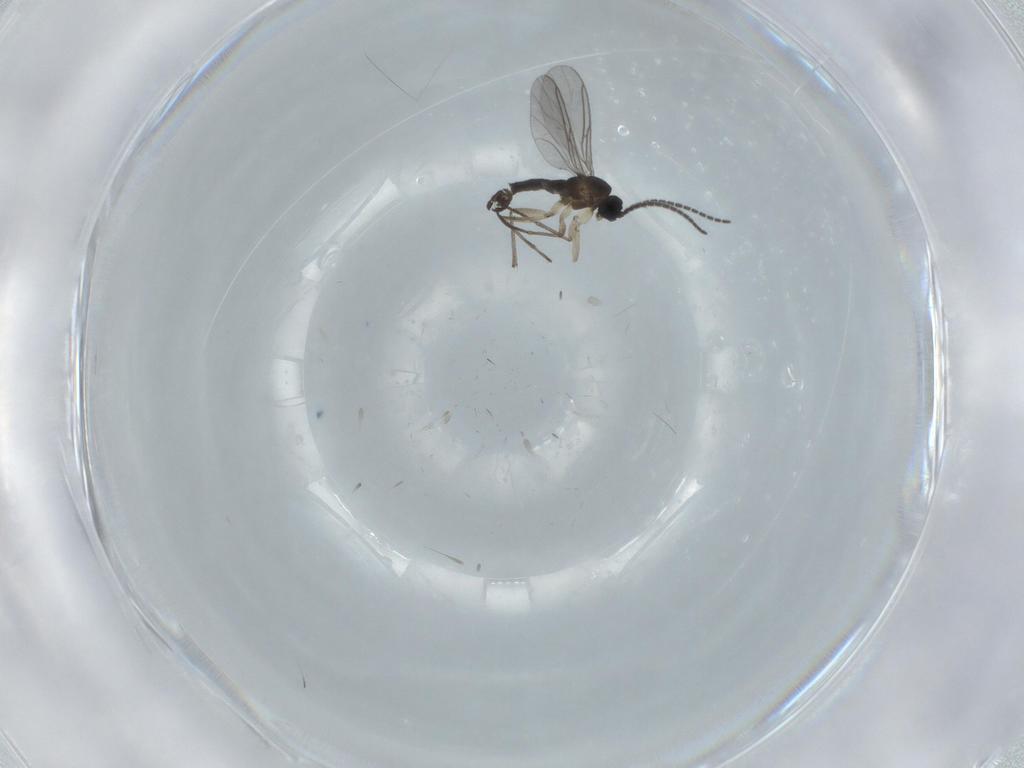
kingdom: Animalia
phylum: Arthropoda
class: Insecta
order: Diptera
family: Sciaridae
